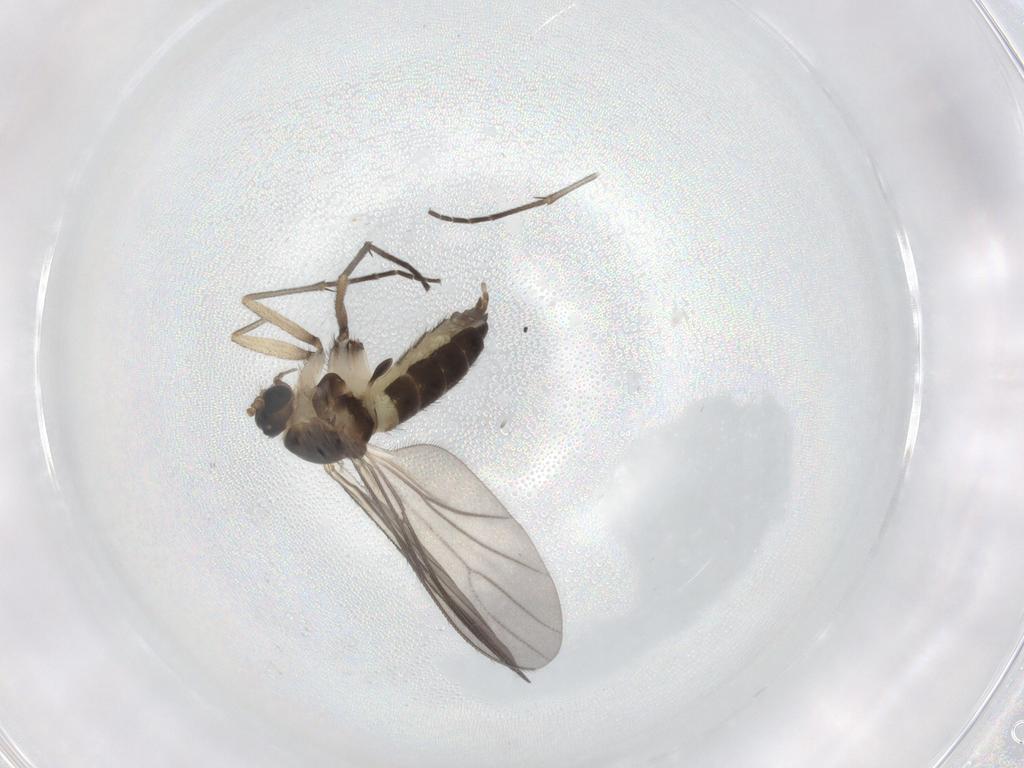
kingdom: Animalia
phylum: Arthropoda
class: Insecta
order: Diptera
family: Sciaridae
